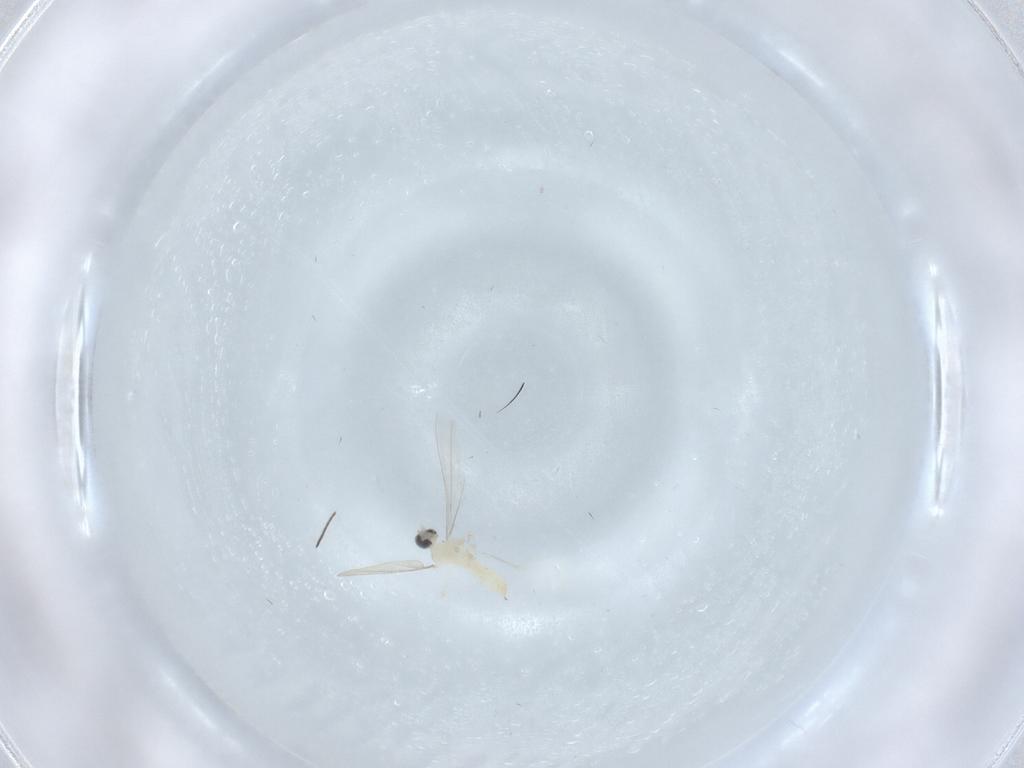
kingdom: Animalia
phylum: Arthropoda
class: Insecta
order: Diptera
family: Cecidomyiidae
